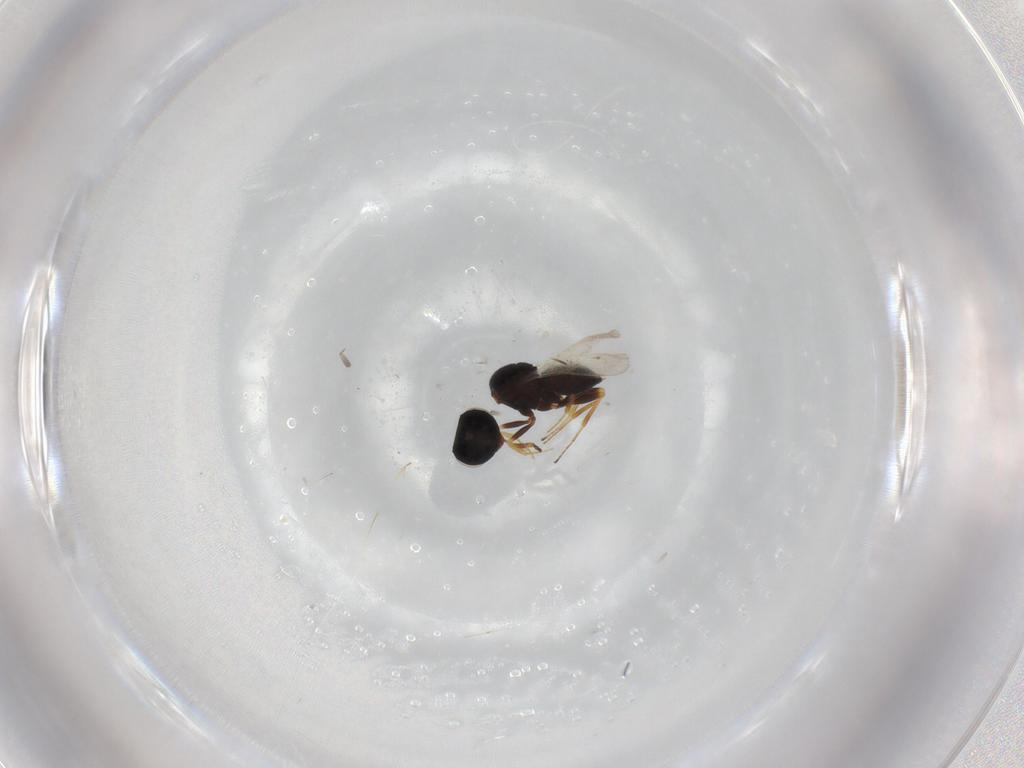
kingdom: Animalia
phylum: Arthropoda
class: Insecta
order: Coleoptera
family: Curculionidae
